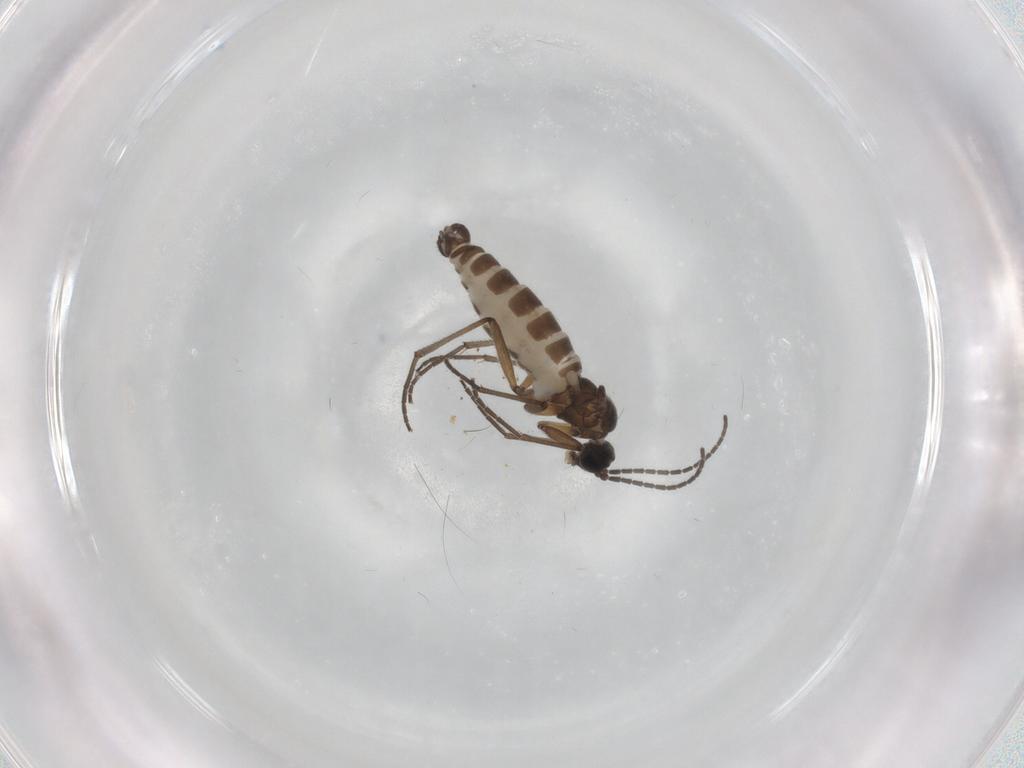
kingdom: Animalia
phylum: Arthropoda
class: Insecta
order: Diptera
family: Sciaridae
